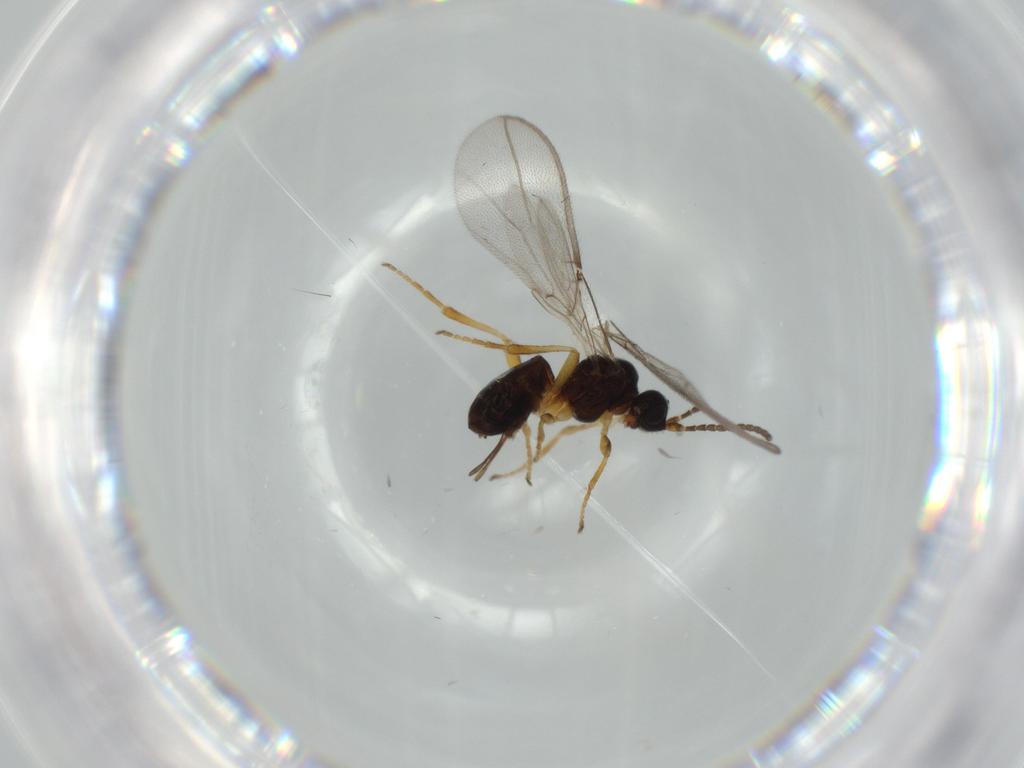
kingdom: Animalia
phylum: Arthropoda
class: Insecta
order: Hymenoptera
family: Braconidae
